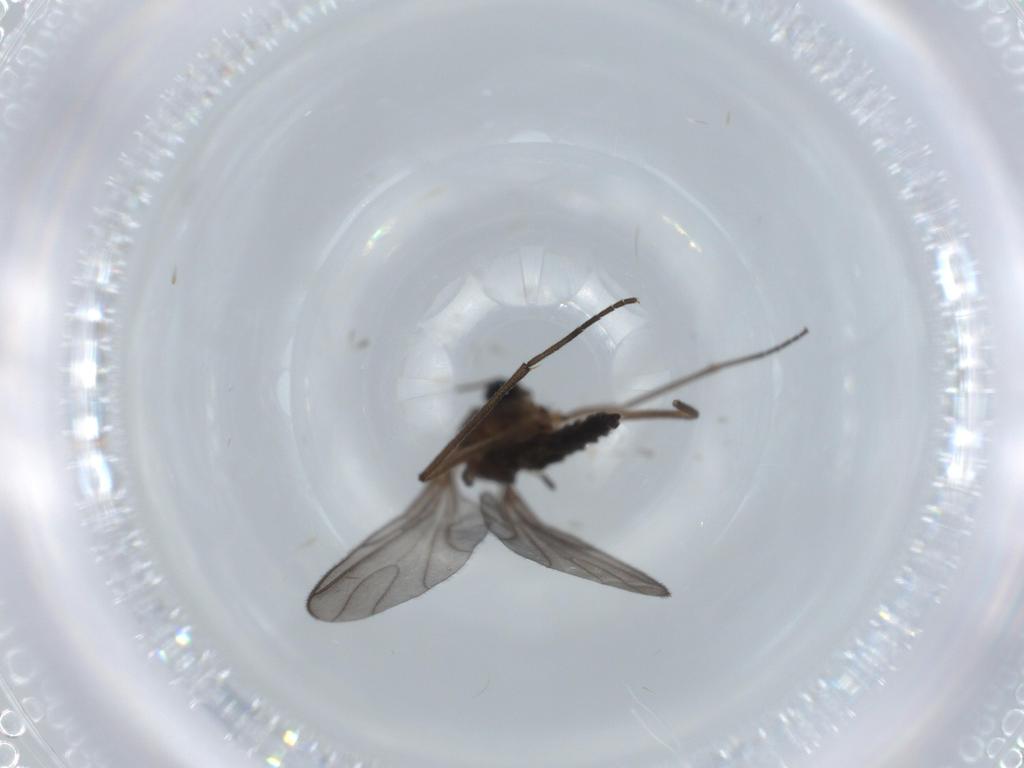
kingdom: Animalia
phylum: Arthropoda
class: Insecta
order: Diptera
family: Sciaridae
